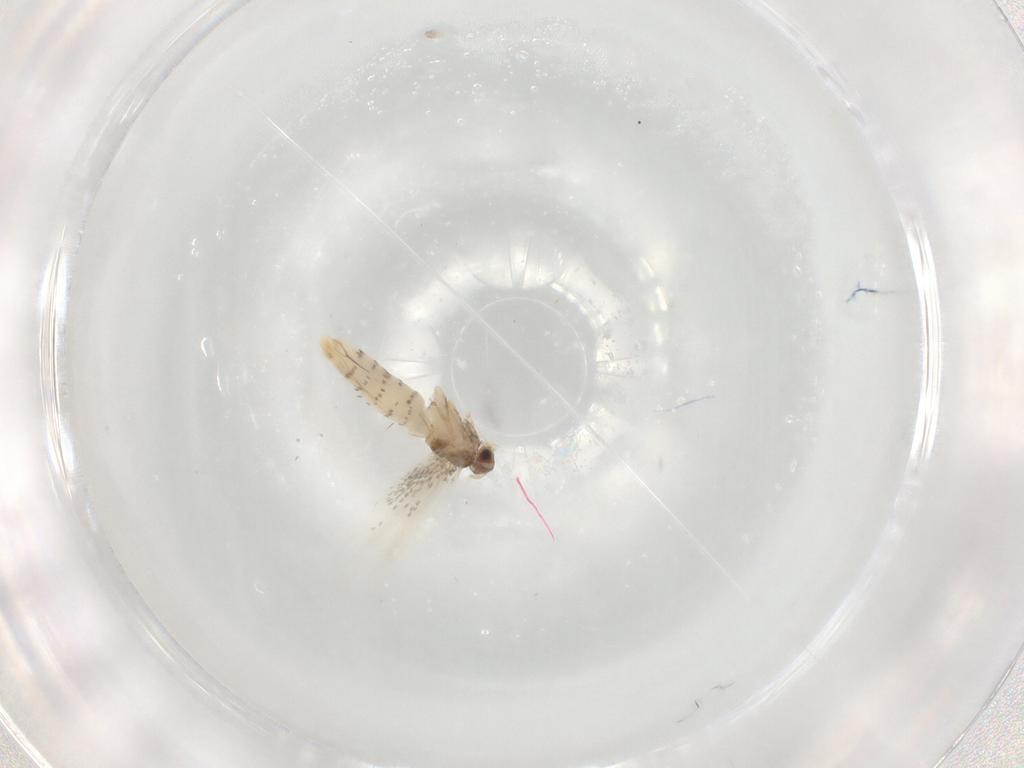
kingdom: Animalia
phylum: Arthropoda
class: Insecta
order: Lepidoptera
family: Tineidae
